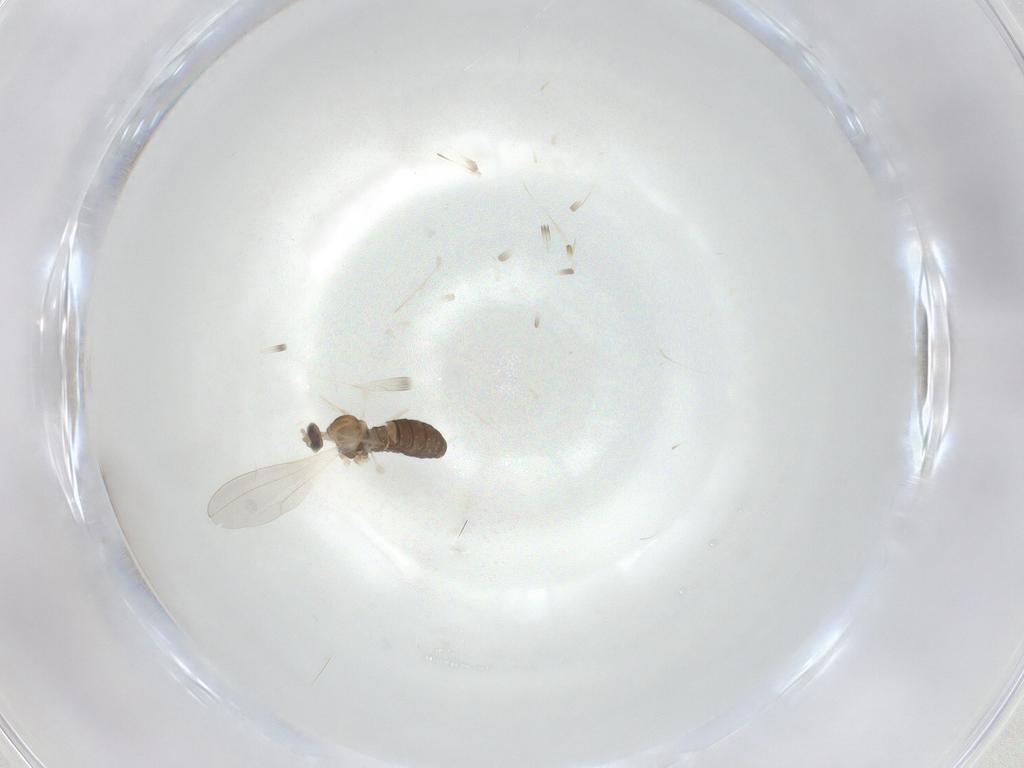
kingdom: Animalia
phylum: Arthropoda
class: Insecta
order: Diptera
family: Cecidomyiidae
